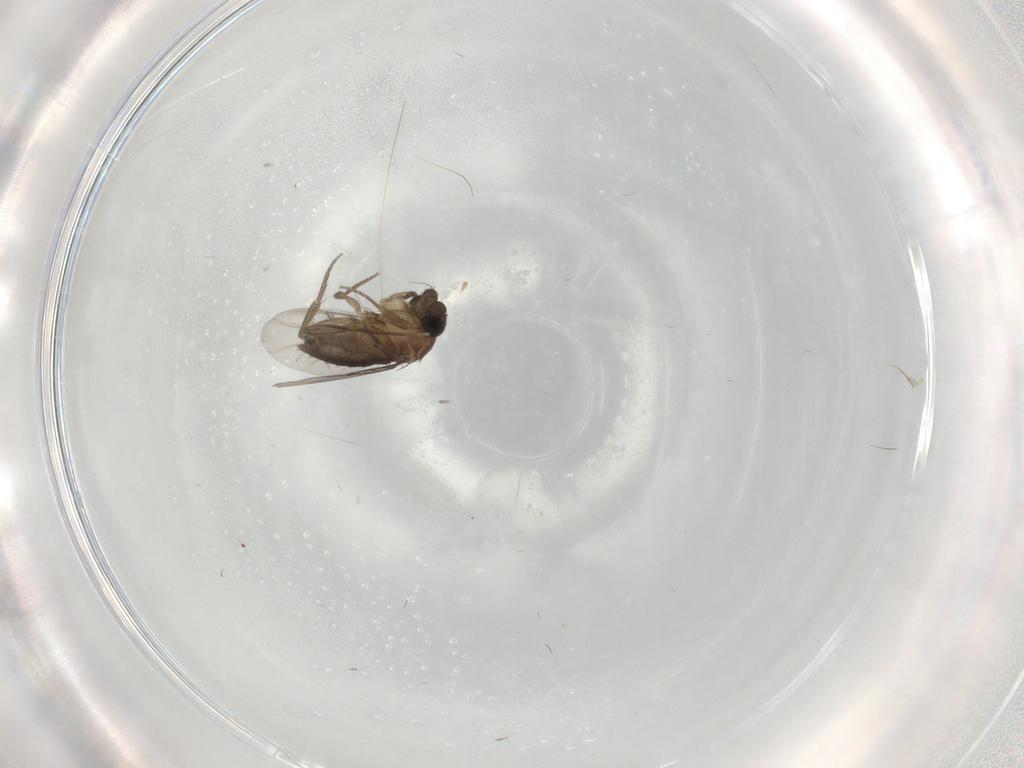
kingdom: Animalia
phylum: Arthropoda
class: Insecta
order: Diptera
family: Phoridae
